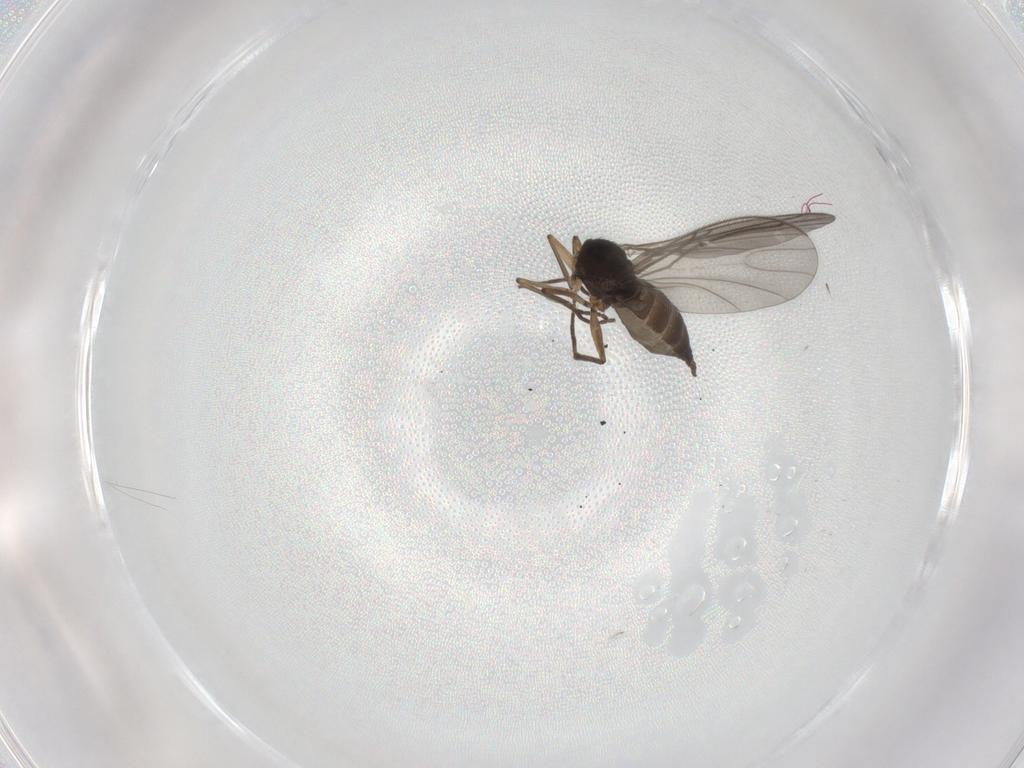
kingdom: Animalia
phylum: Arthropoda
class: Insecta
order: Diptera
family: Sciaridae
